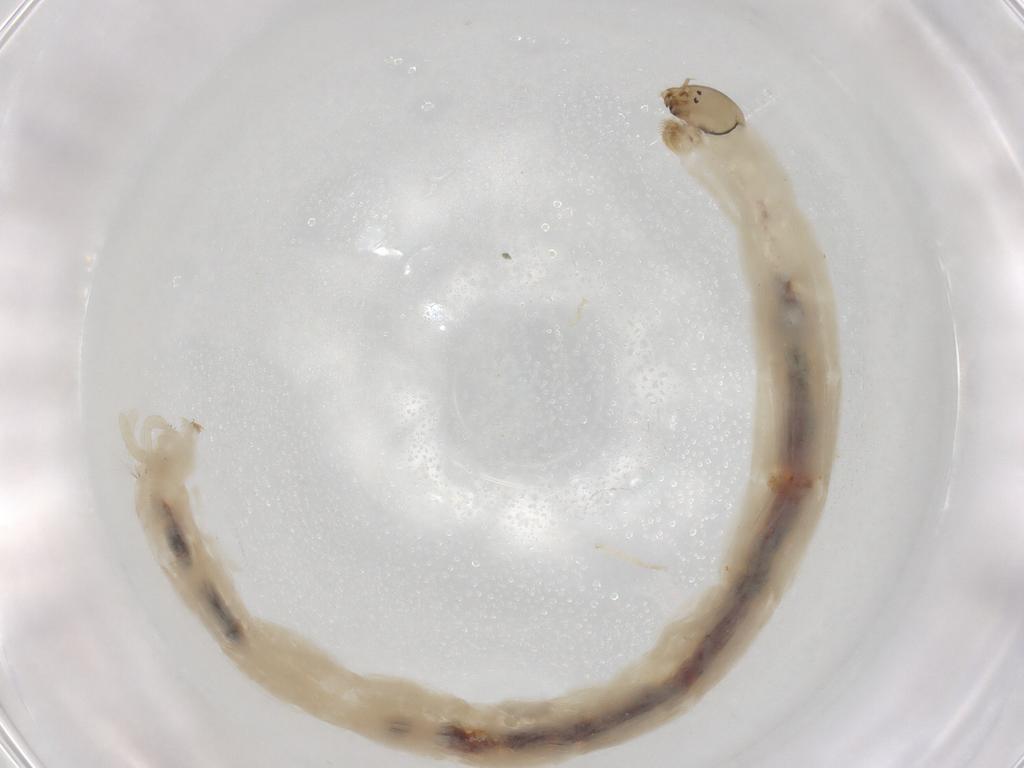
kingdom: Animalia
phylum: Arthropoda
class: Insecta
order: Diptera
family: Chironomidae
